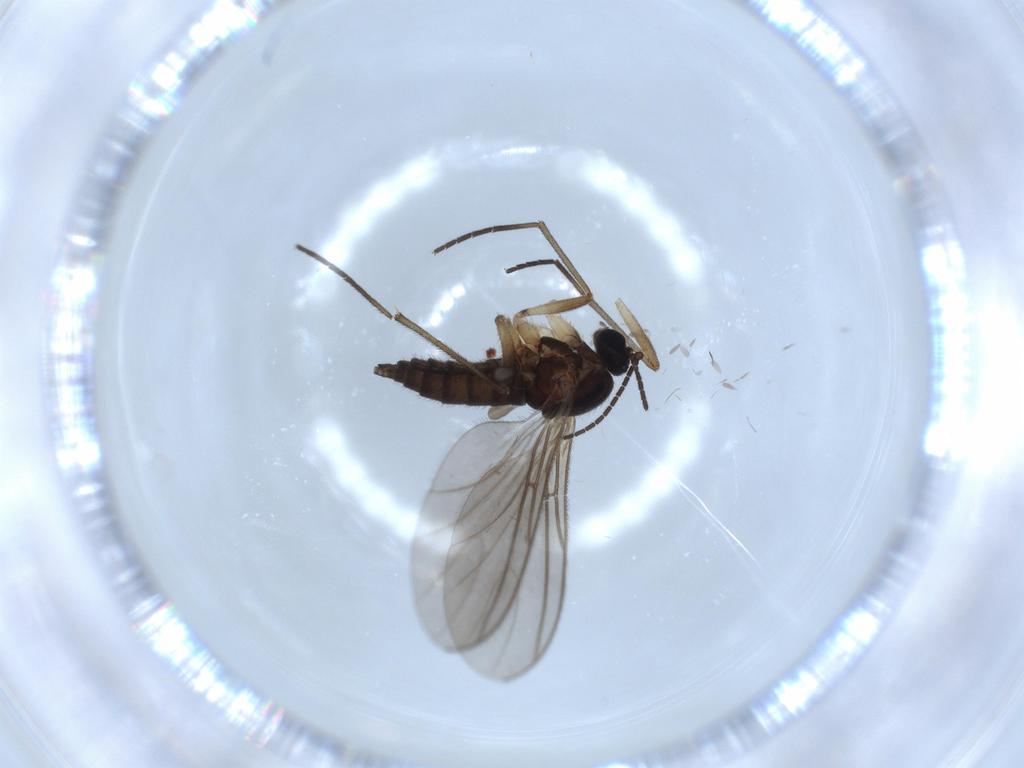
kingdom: Animalia
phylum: Arthropoda
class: Insecta
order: Diptera
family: Sciaridae
